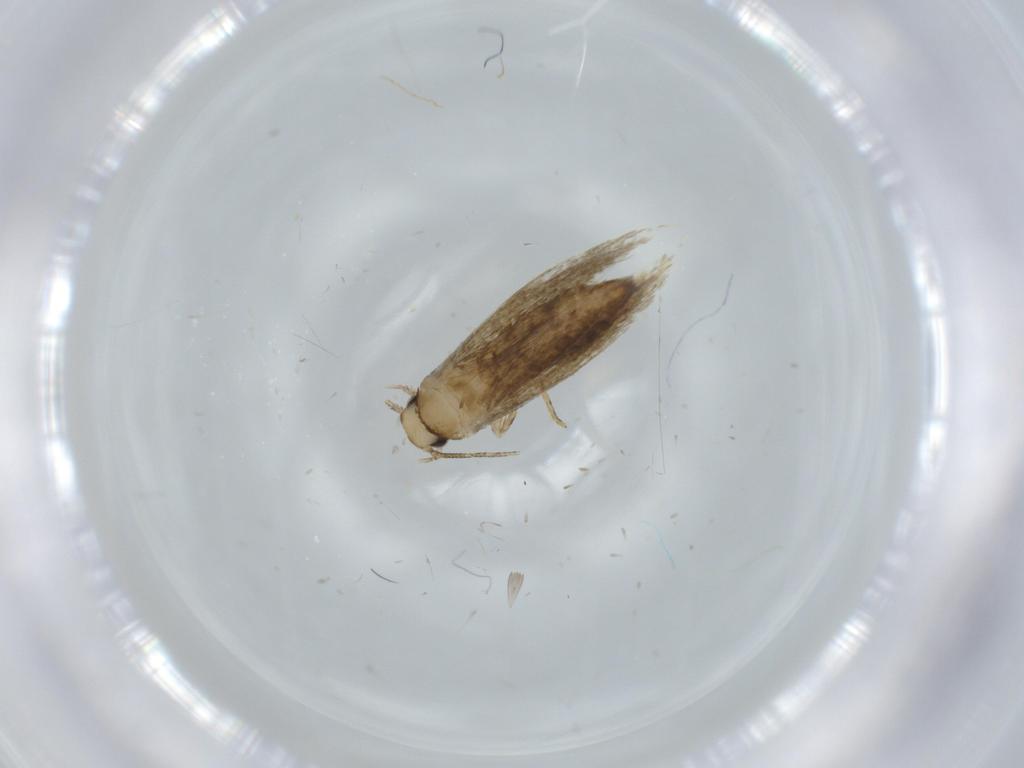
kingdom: Animalia
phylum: Arthropoda
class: Insecta
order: Lepidoptera
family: Tineidae
